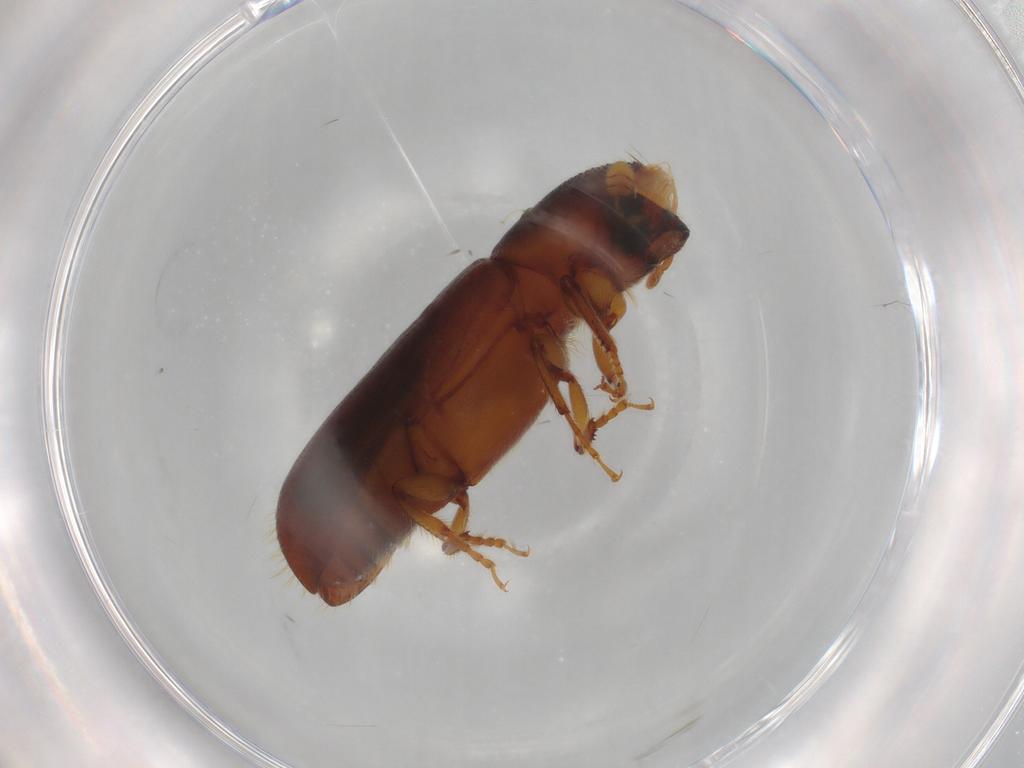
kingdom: Animalia
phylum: Arthropoda
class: Insecta
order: Coleoptera
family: Curculionidae
